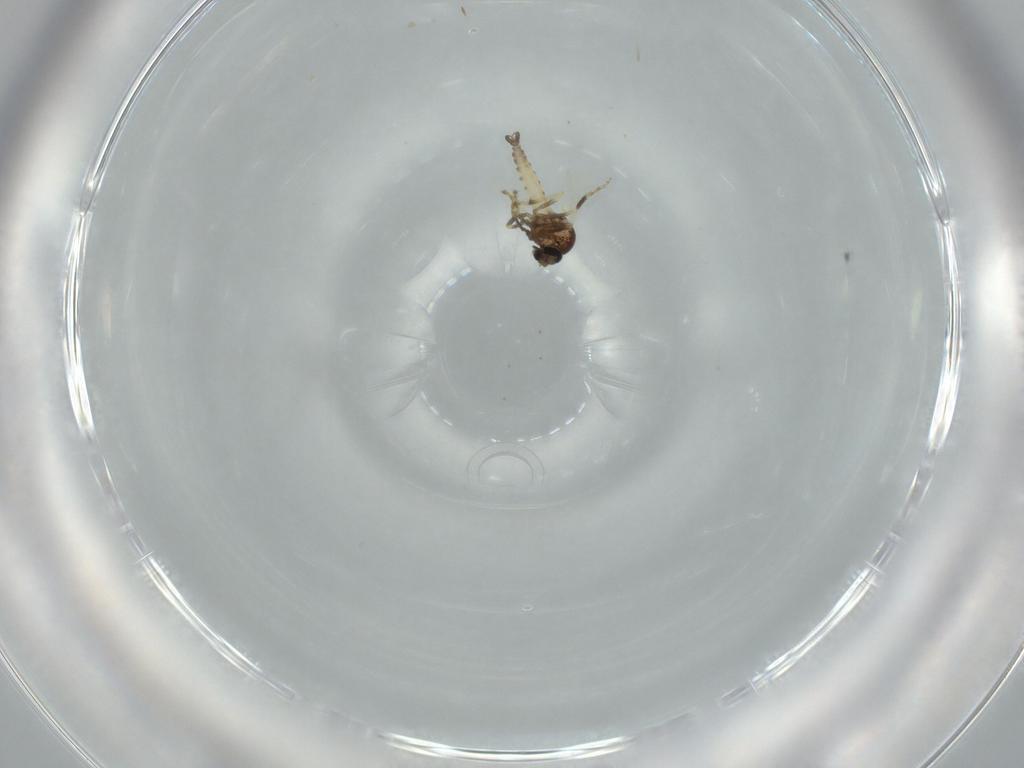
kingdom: Animalia
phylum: Arthropoda
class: Insecta
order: Diptera
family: Ceratopogonidae
